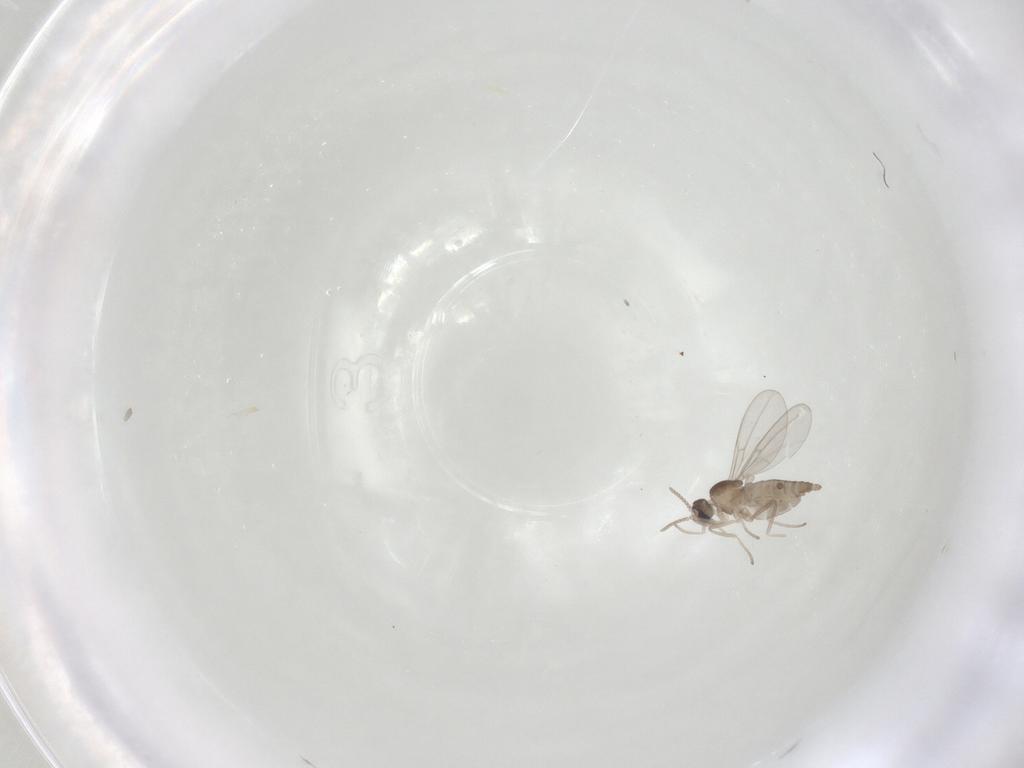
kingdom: Animalia
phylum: Arthropoda
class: Insecta
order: Diptera
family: Cecidomyiidae
